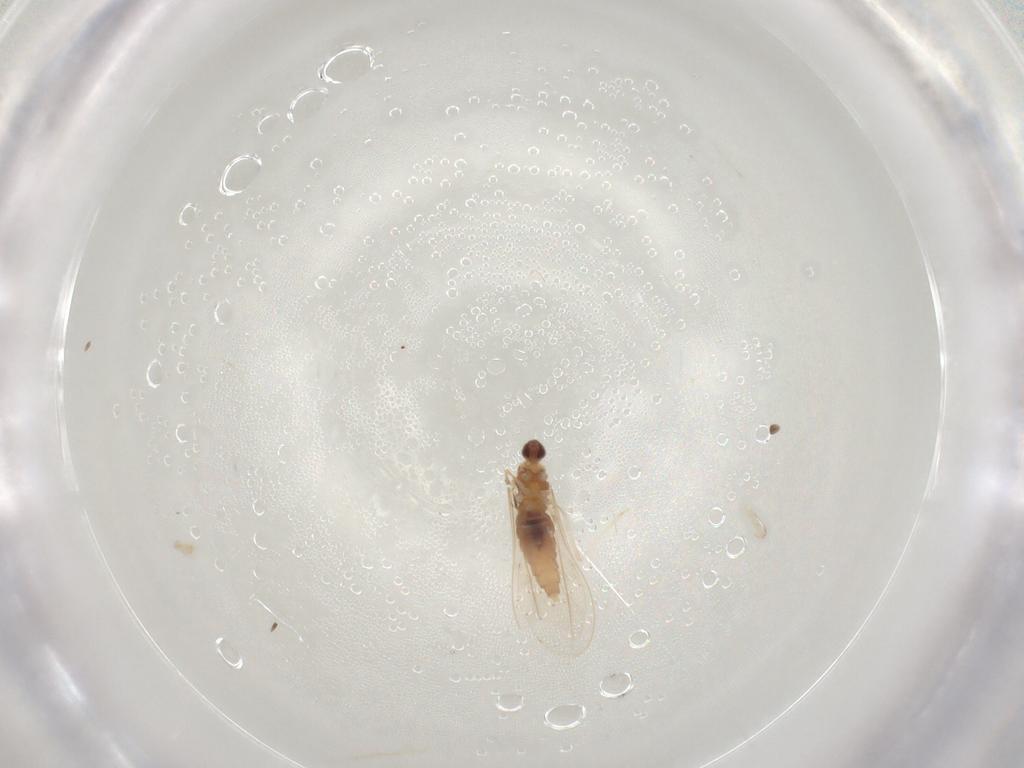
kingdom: Animalia
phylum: Arthropoda
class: Insecta
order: Diptera
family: Cecidomyiidae
